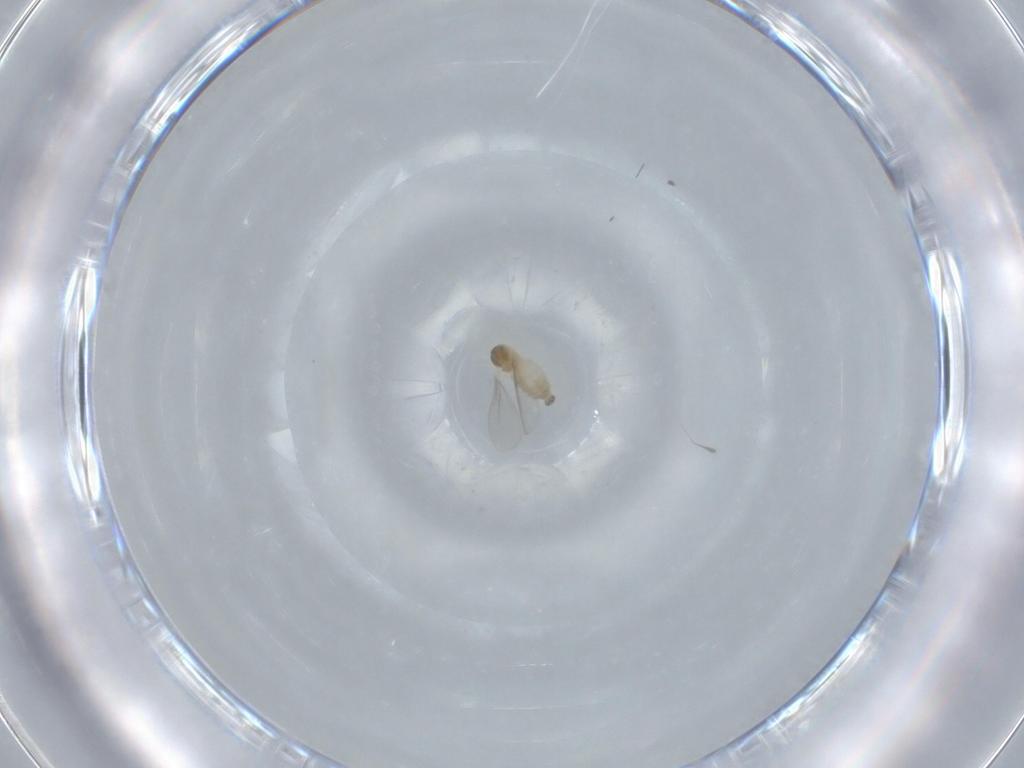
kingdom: Animalia
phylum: Arthropoda
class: Insecta
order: Diptera
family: Cecidomyiidae
